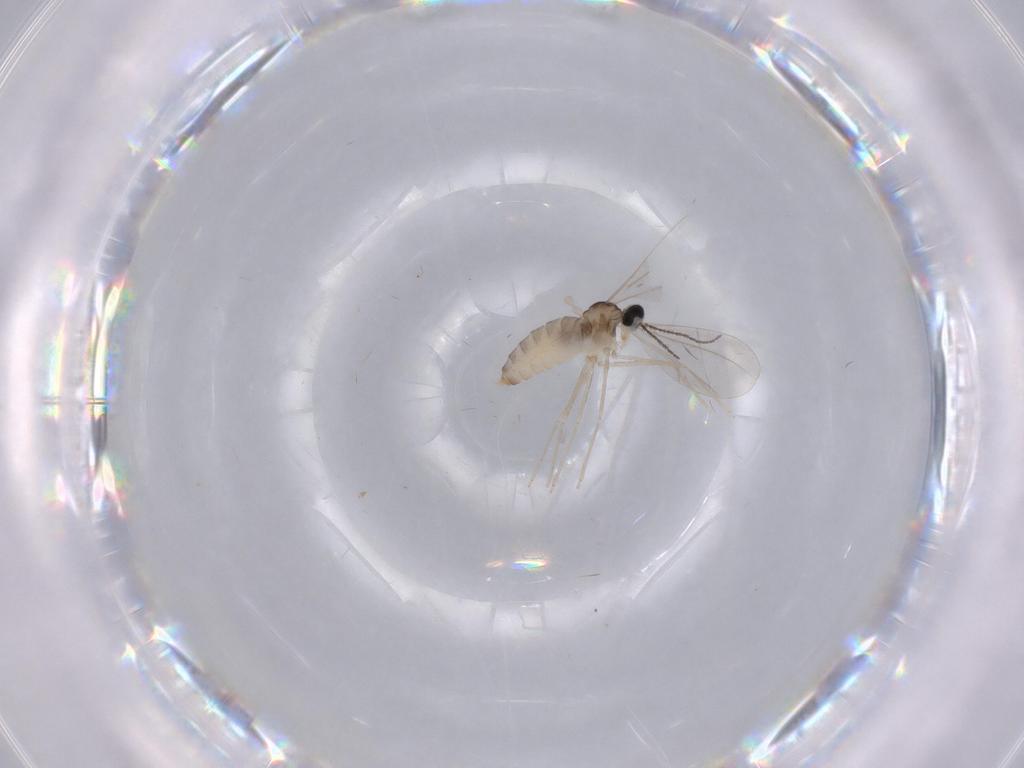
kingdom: Animalia
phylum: Arthropoda
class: Insecta
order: Diptera
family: Cecidomyiidae
